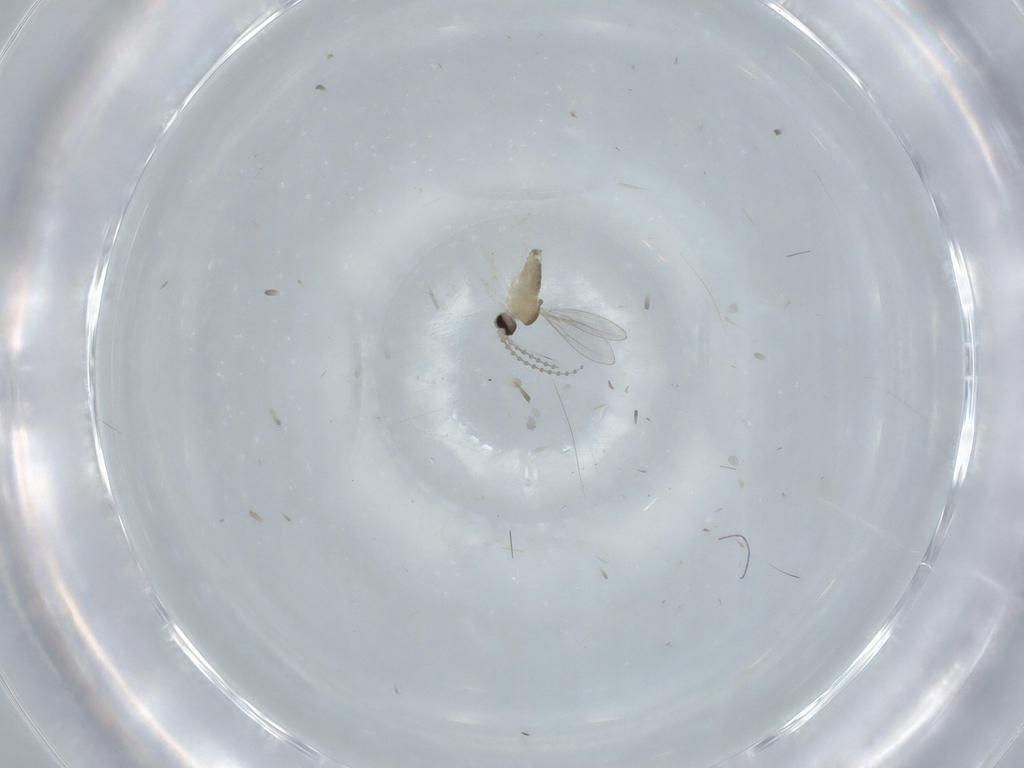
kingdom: Animalia
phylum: Arthropoda
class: Insecta
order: Diptera
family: Cecidomyiidae
